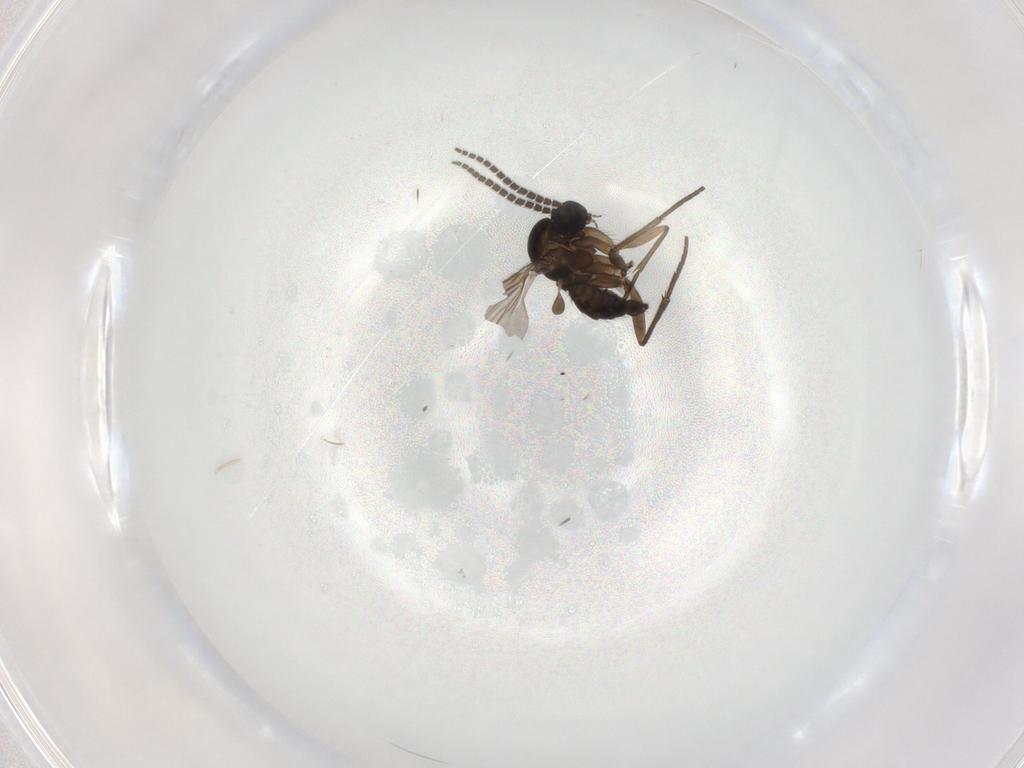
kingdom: Animalia
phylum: Arthropoda
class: Insecta
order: Diptera
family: Sciaridae
